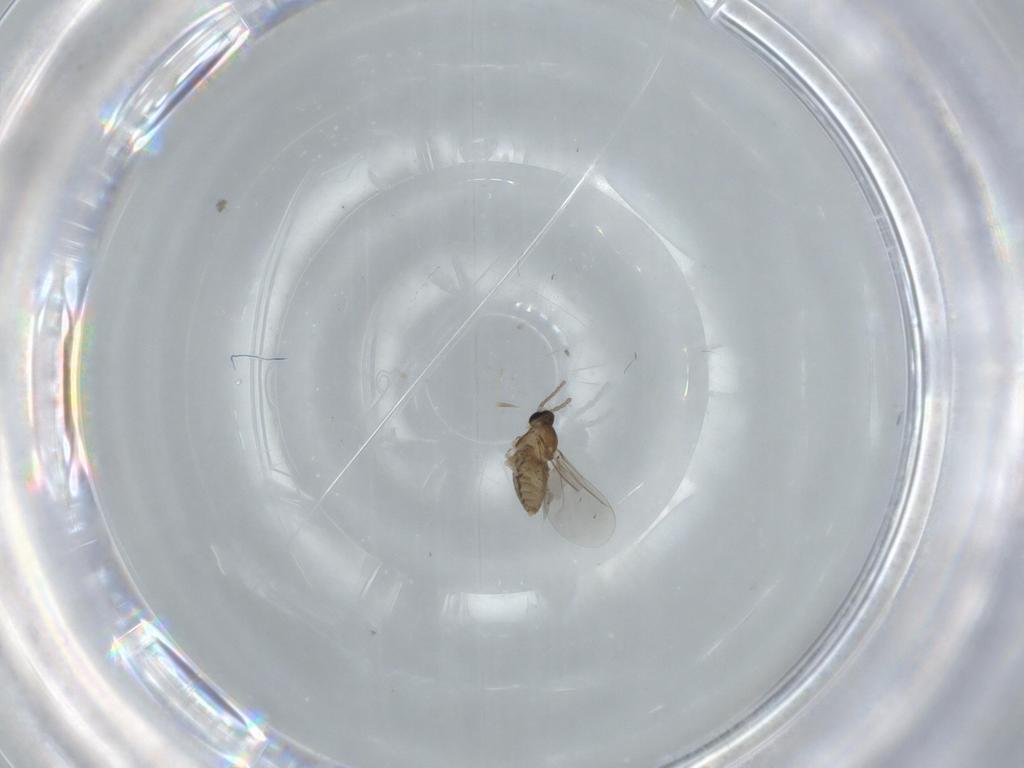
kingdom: Animalia
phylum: Arthropoda
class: Insecta
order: Diptera
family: Cecidomyiidae
